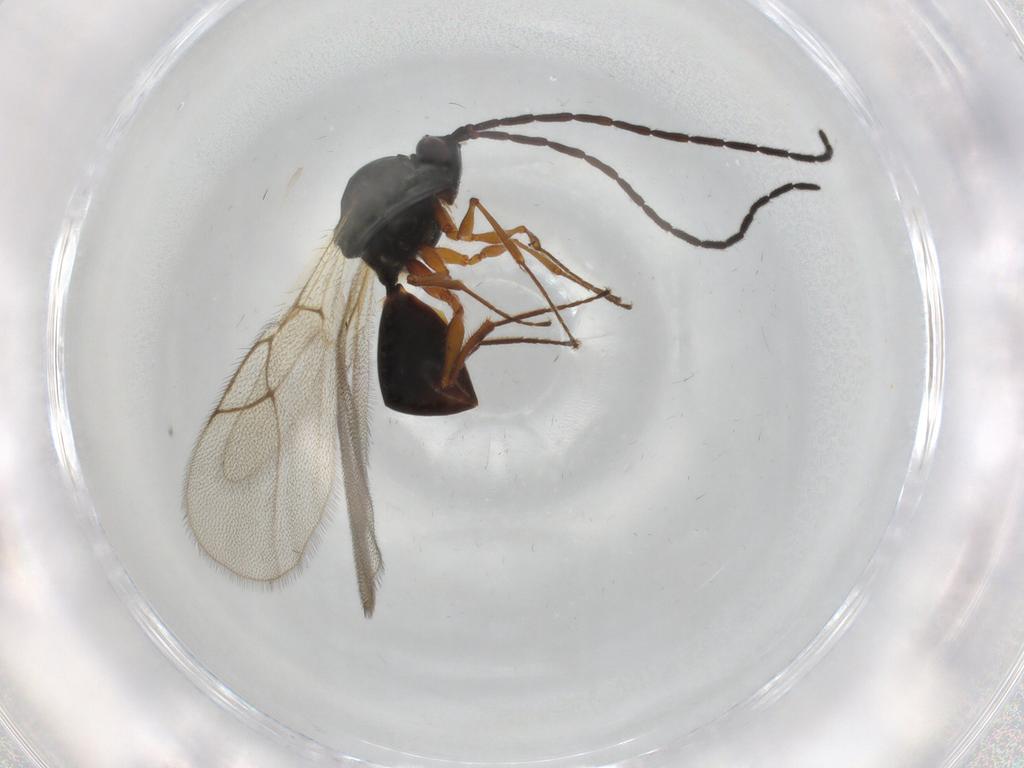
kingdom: Animalia
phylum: Arthropoda
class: Insecta
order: Hymenoptera
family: Figitidae
